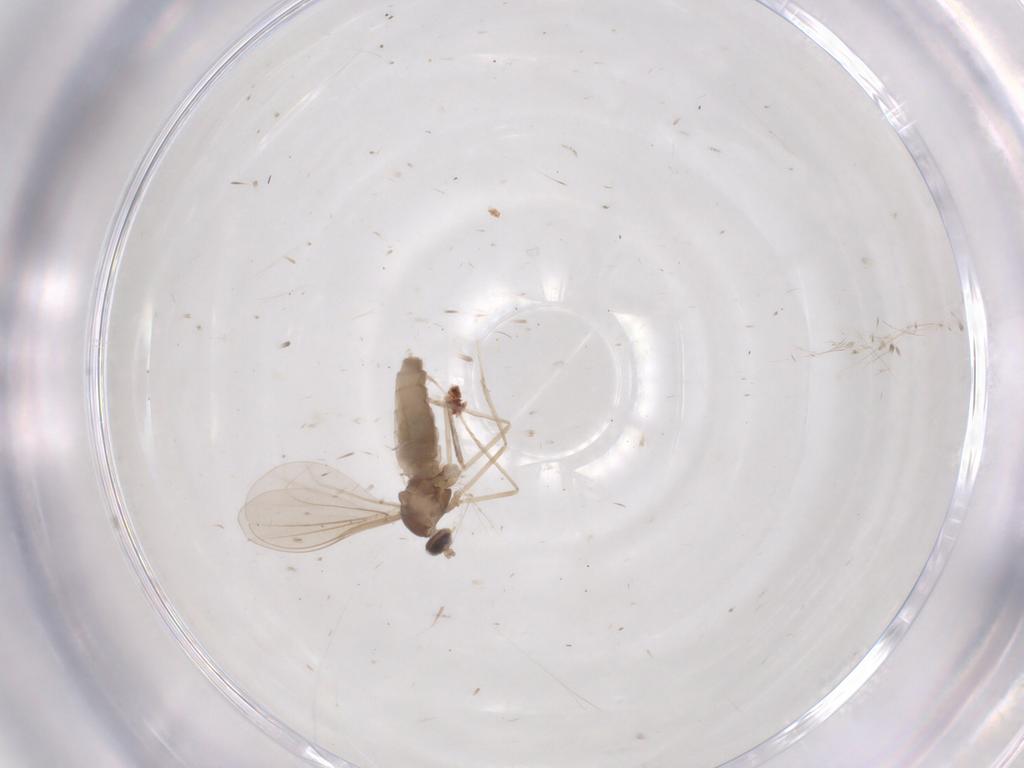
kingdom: Animalia
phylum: Arthropoda
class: Insecta
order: Diptera
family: Cecidomyiidae
